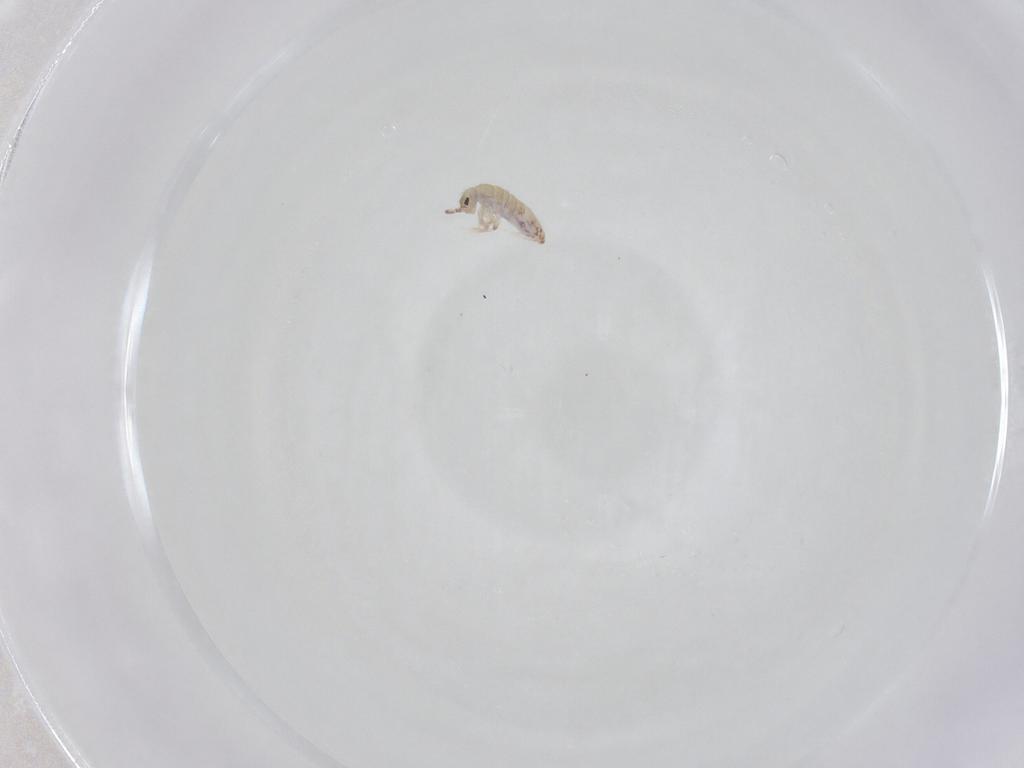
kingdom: Animalia
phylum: Arthropoda
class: Collembola
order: Entomobryomorpha
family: Entomobryidae
